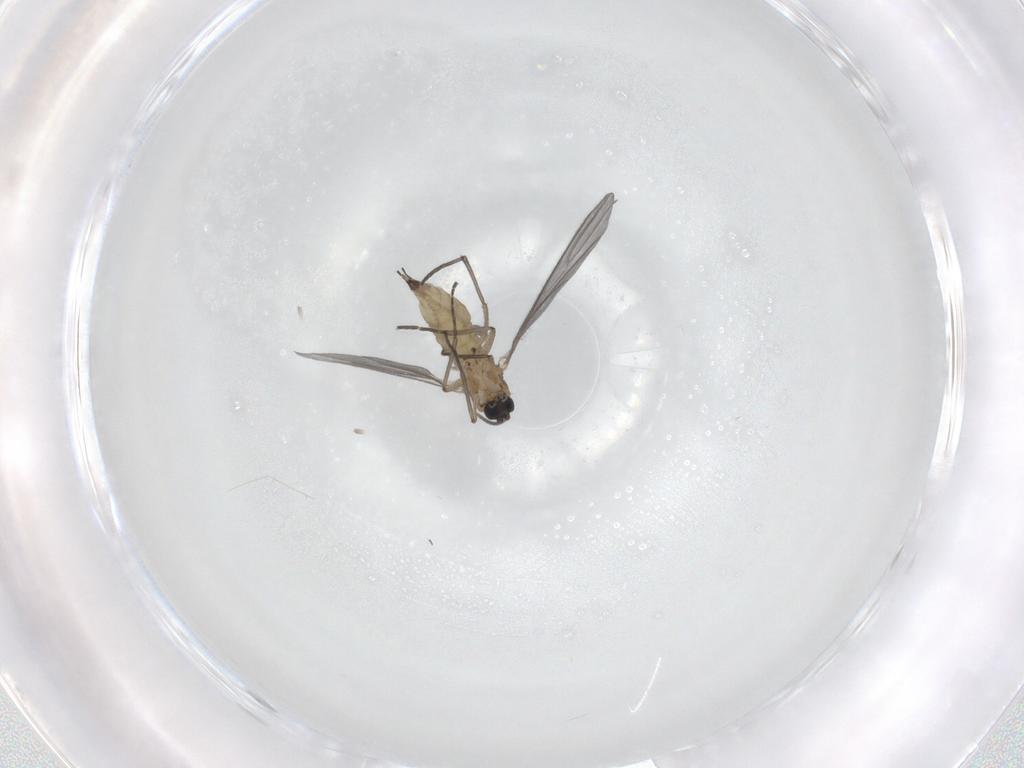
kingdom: Animalia
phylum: Arthropoda
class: Insecta
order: Diptera
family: Sciaridae
